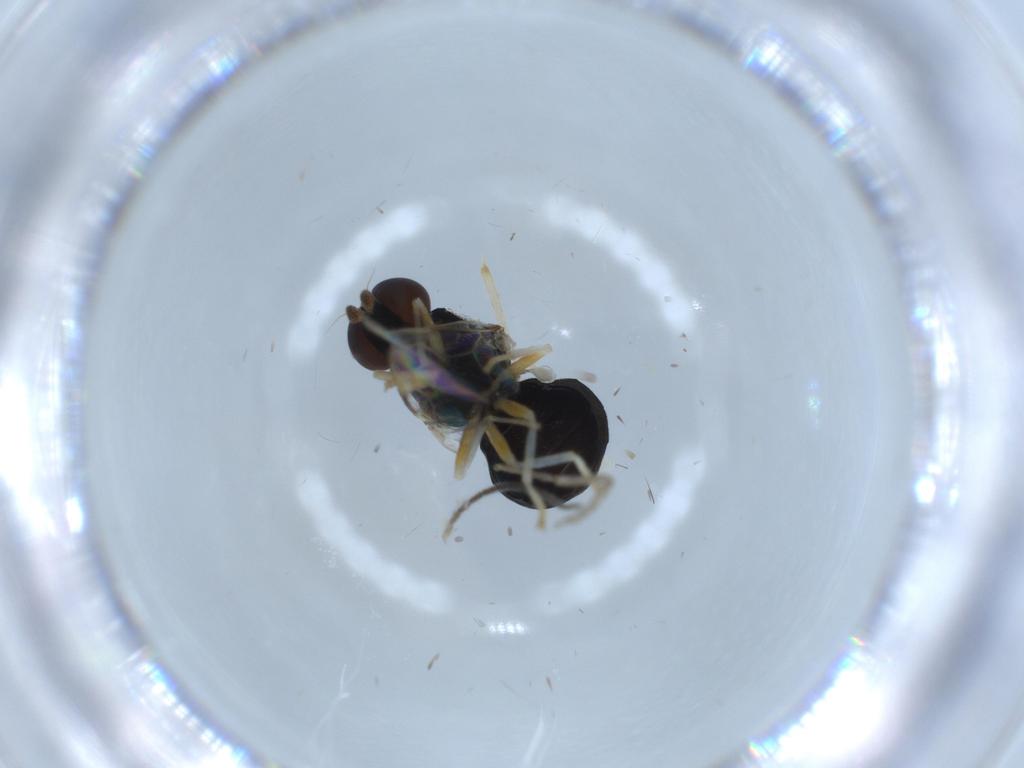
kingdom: Animalia
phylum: Arthropoda
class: Insecta
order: Diptera
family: Stratiomyidae
